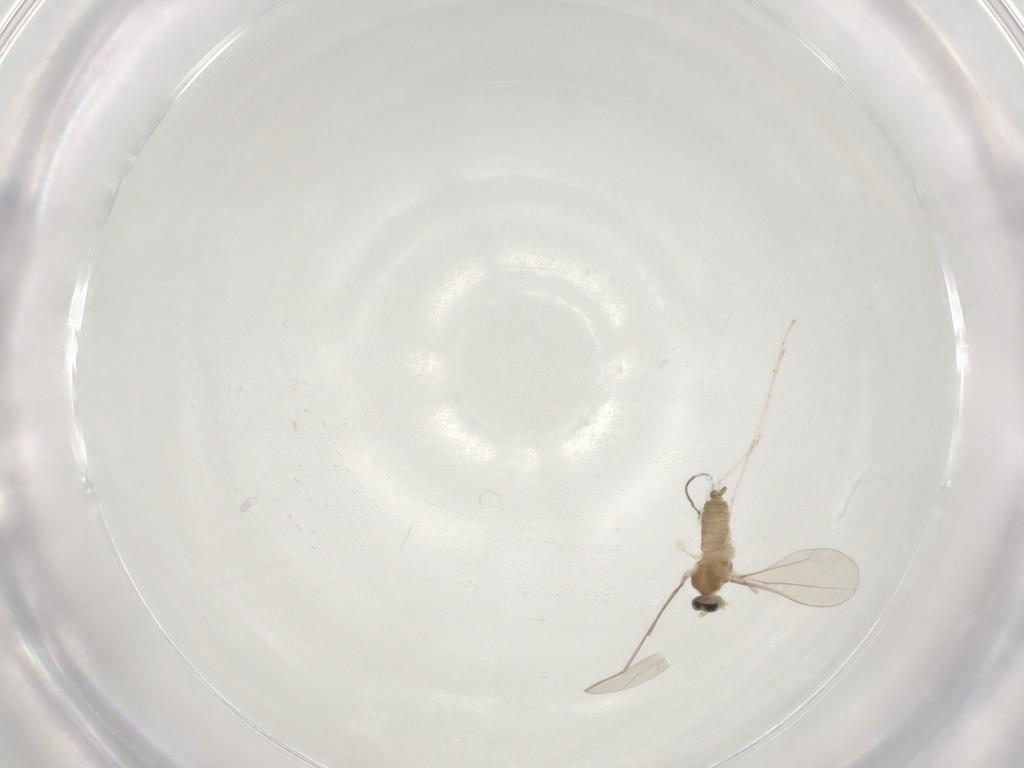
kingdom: Animalia
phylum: Arthropoda
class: Insecta
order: Diptera
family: Cecidomyiidae
